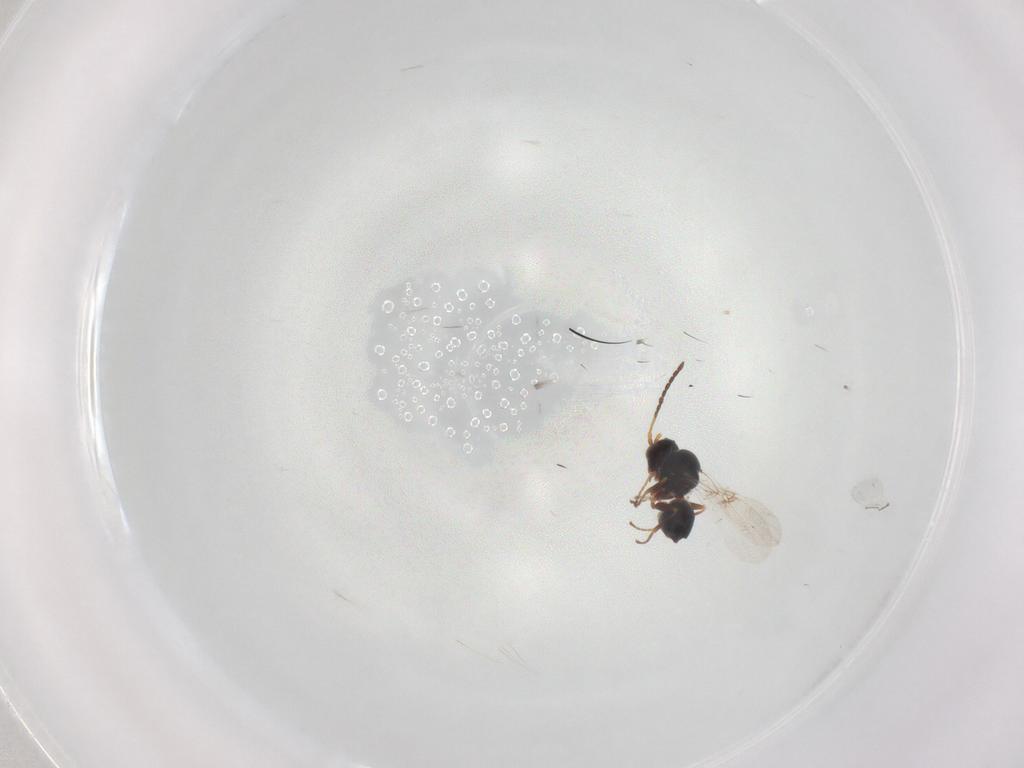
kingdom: Animalia
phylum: Arthropoda
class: Insecta
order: Hymenoptera
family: Figitidae
